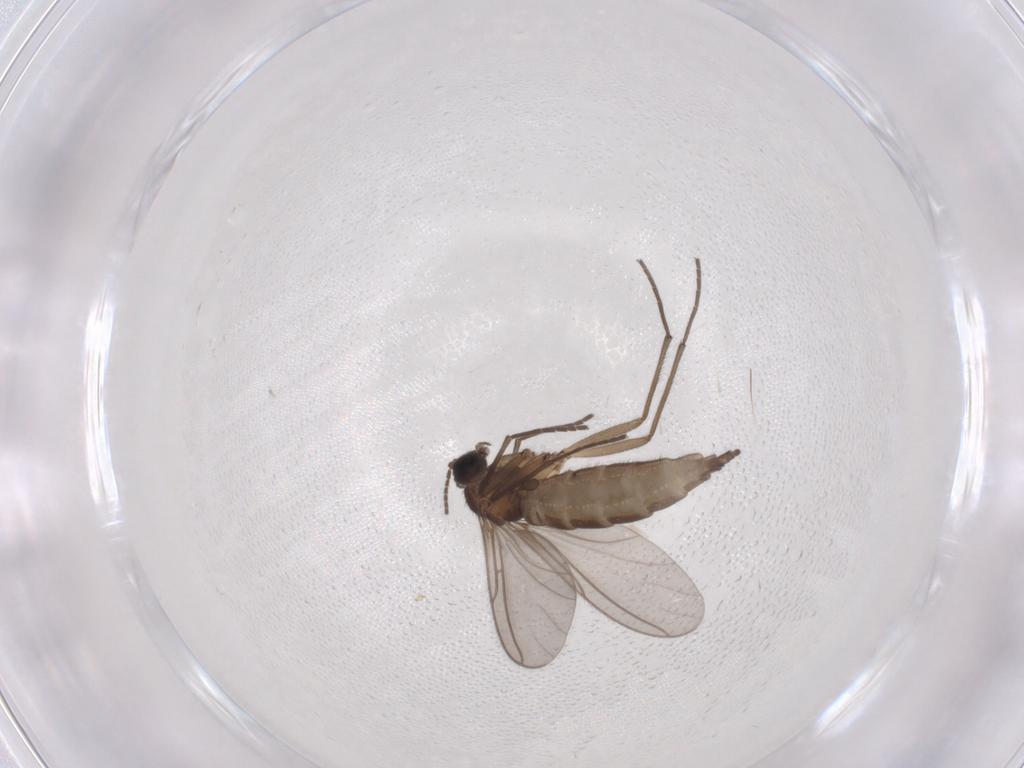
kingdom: Animalia
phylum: Arthropoda
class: Insecta
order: Diptera
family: Sciaridae
